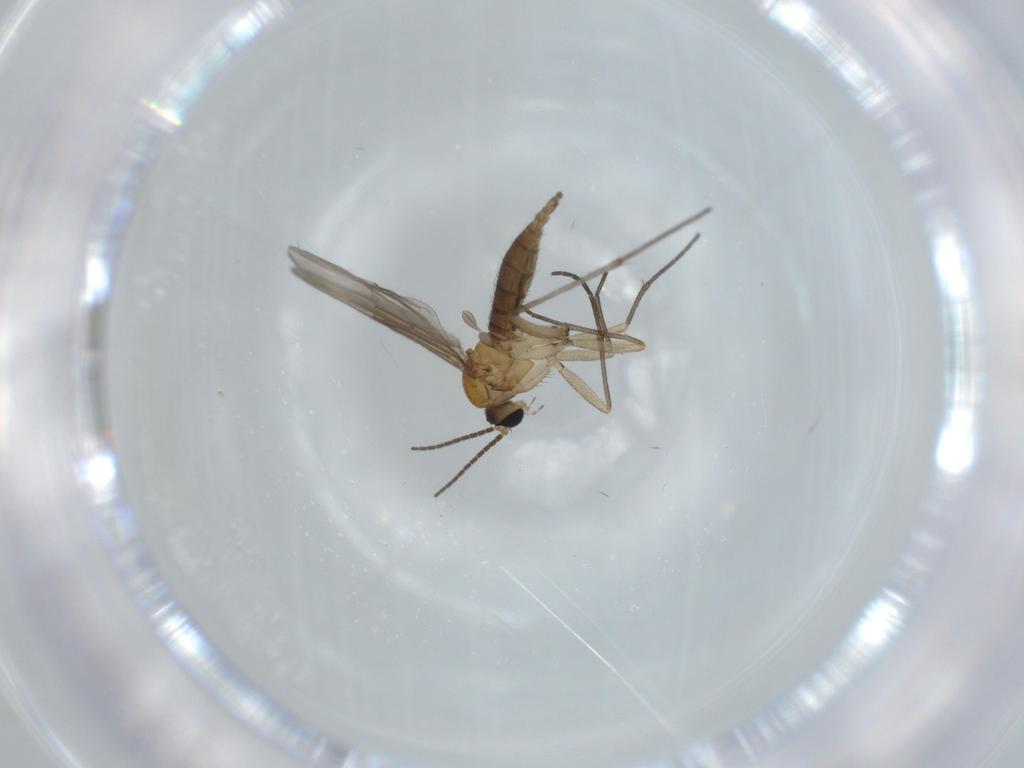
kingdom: Animalia
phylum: Arthropoda
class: Insecta
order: Diptera
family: Sciaridae
